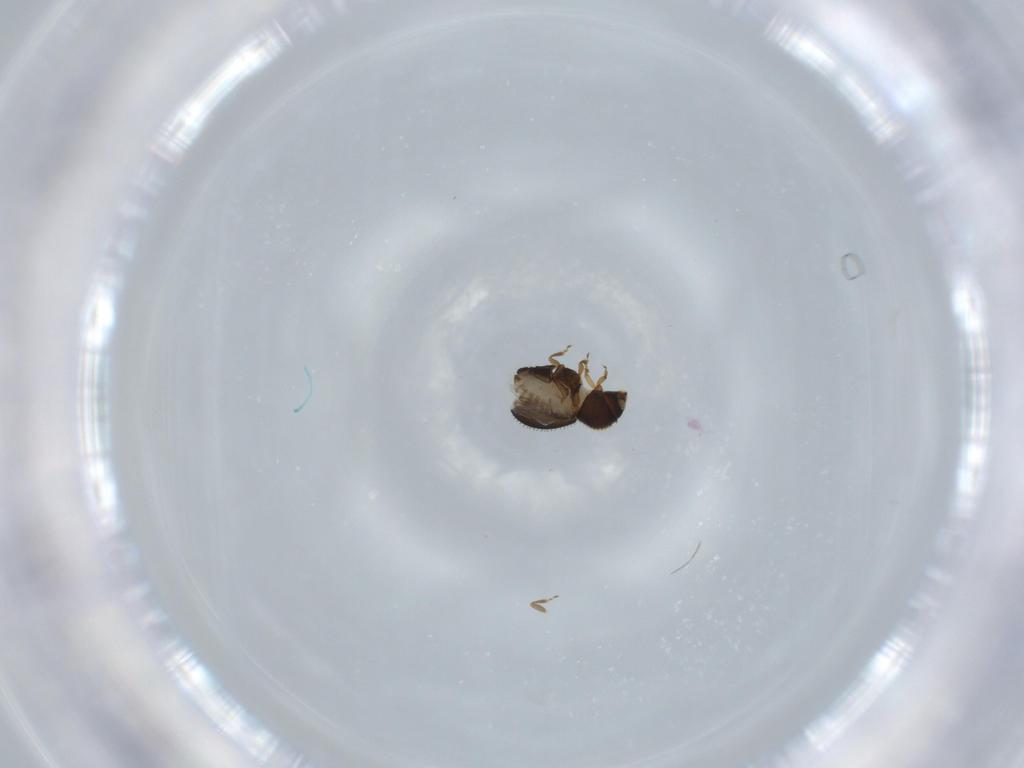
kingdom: Animalia
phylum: Arthropoda
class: Insecta
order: Coleoptera
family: Curculionidae
